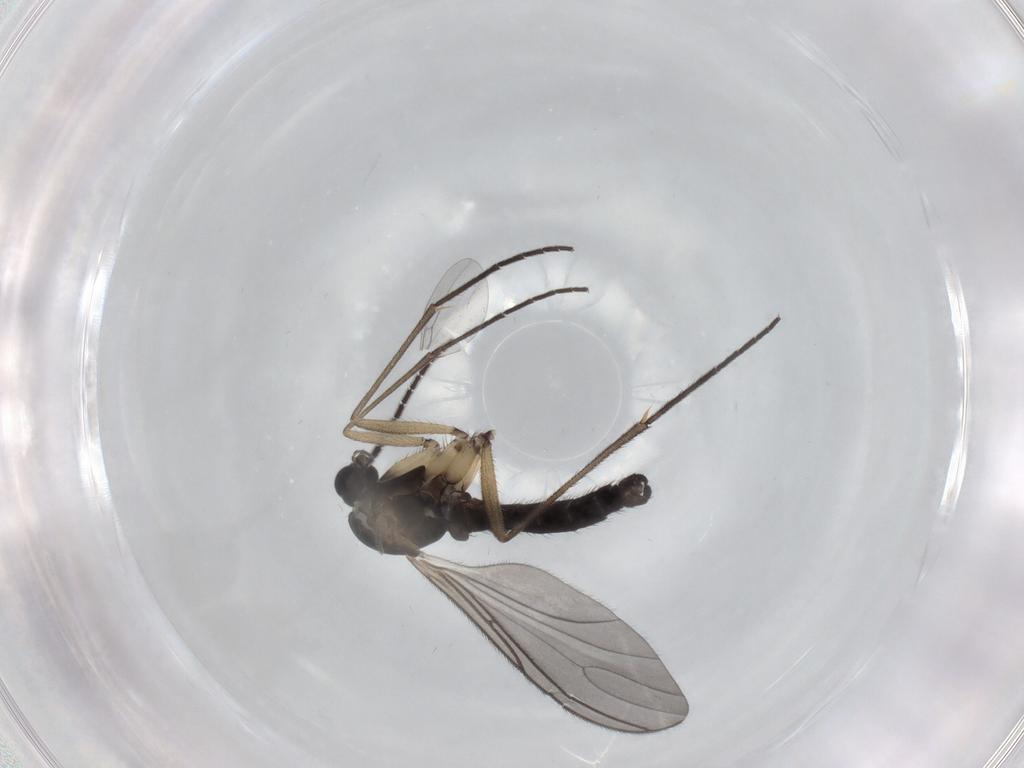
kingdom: Animalia
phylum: Arthropoda
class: Insecta
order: Diptera
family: Sciaridae
